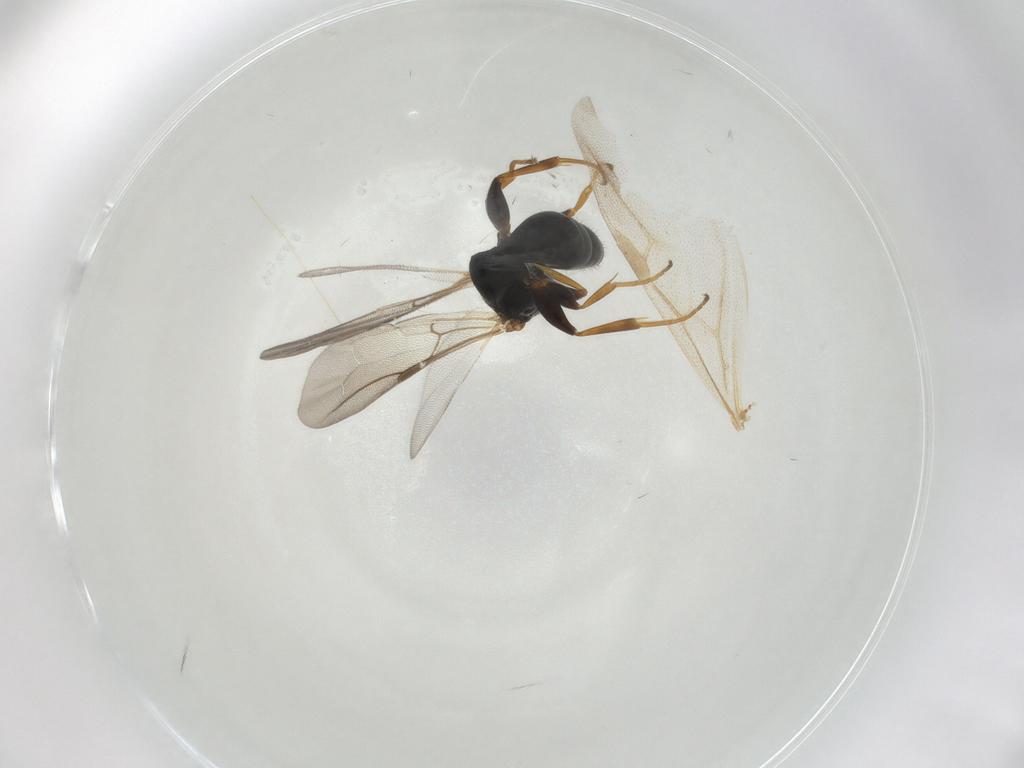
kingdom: Animalia
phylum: Arthropoda
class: Insecta
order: Hymenoptera
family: Bethylidae
